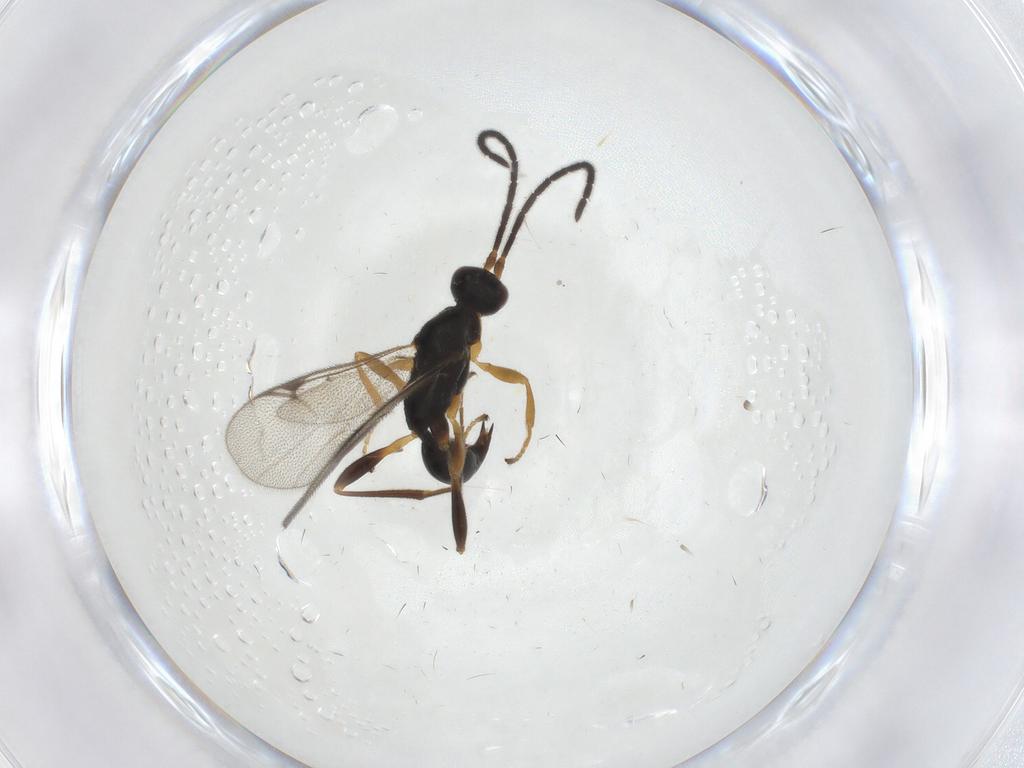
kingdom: Animalia
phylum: Arthropoda
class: Insecta
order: Hymenoptera
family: Proctotrupidae
